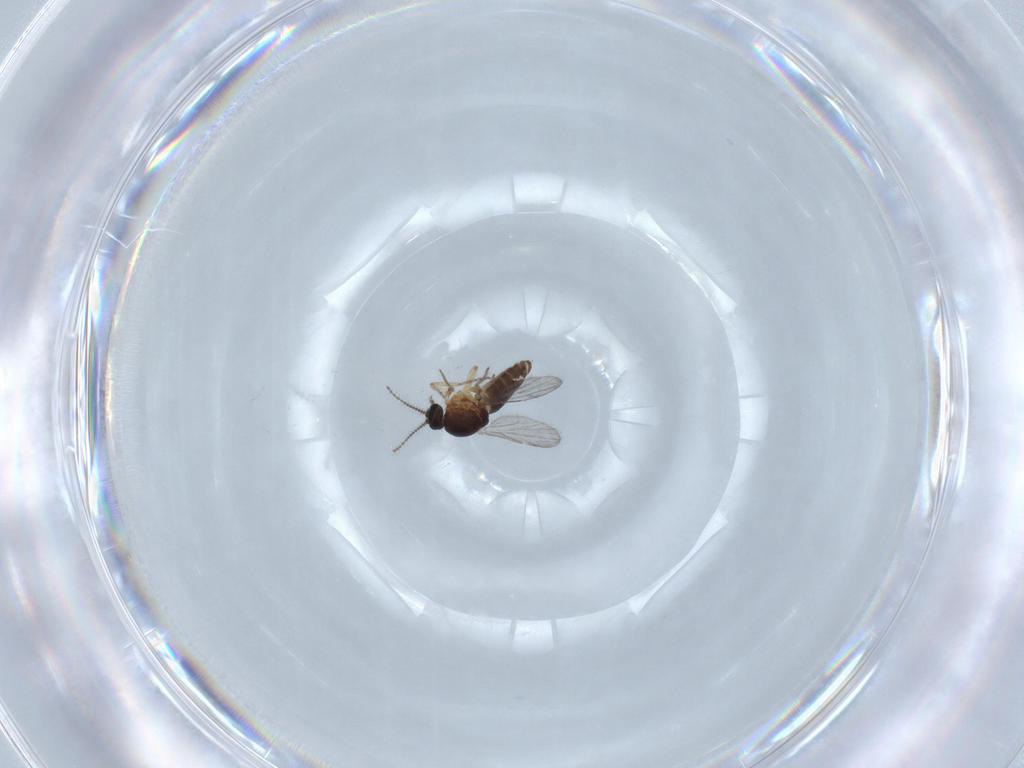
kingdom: Animalia
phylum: Arthropoda
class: Insecta
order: Diptera
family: Ceratopogonidae
